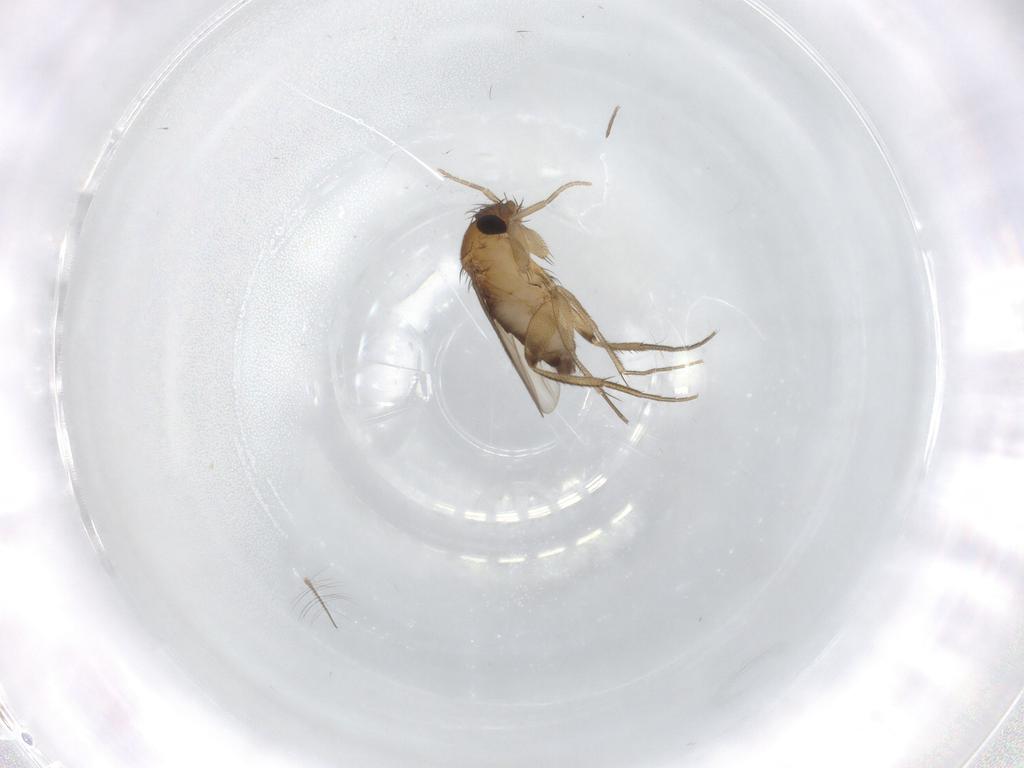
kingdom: Animalia
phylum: Arthropoda
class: Insecta
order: Diptera
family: Phoridae
